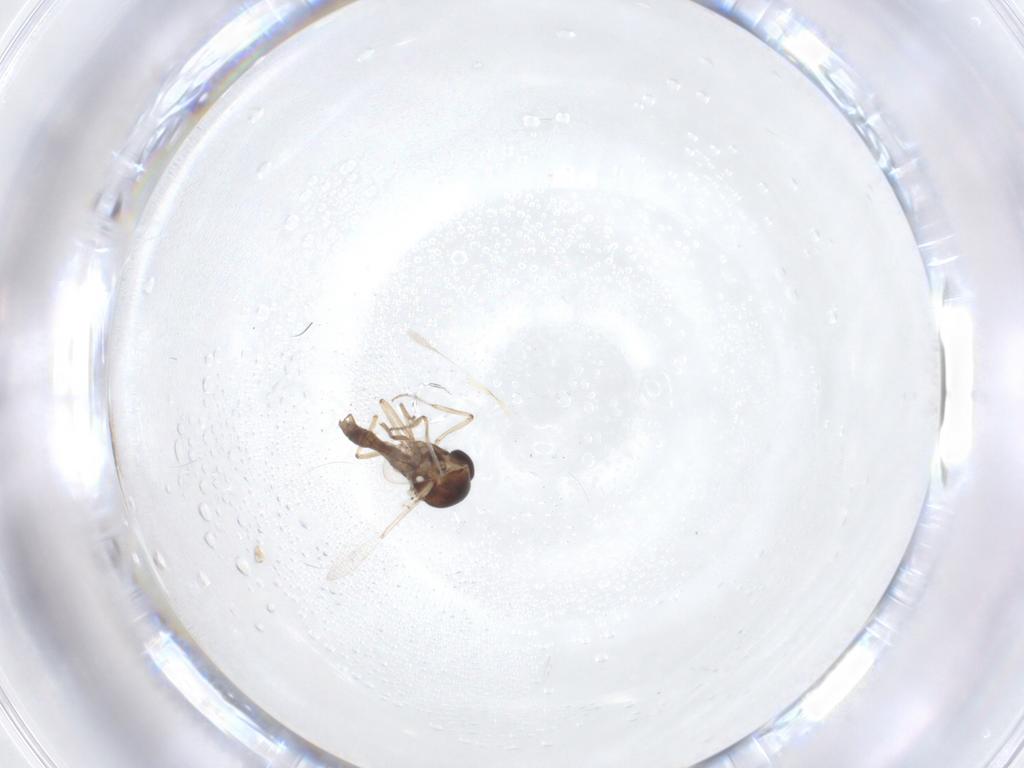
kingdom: Animalia
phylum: Arthropoda
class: Insecta
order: Diptera
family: Ceratopogonidae
